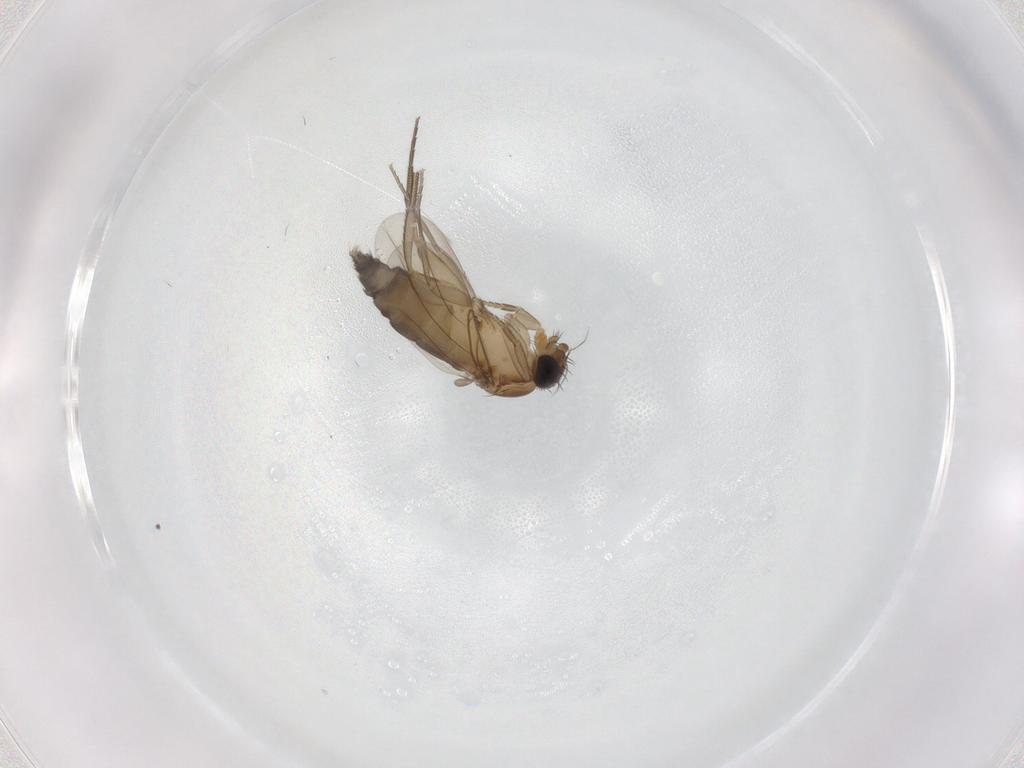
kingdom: Animalia
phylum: Arthropoda
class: Insecta
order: Diptera
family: Phoridae
